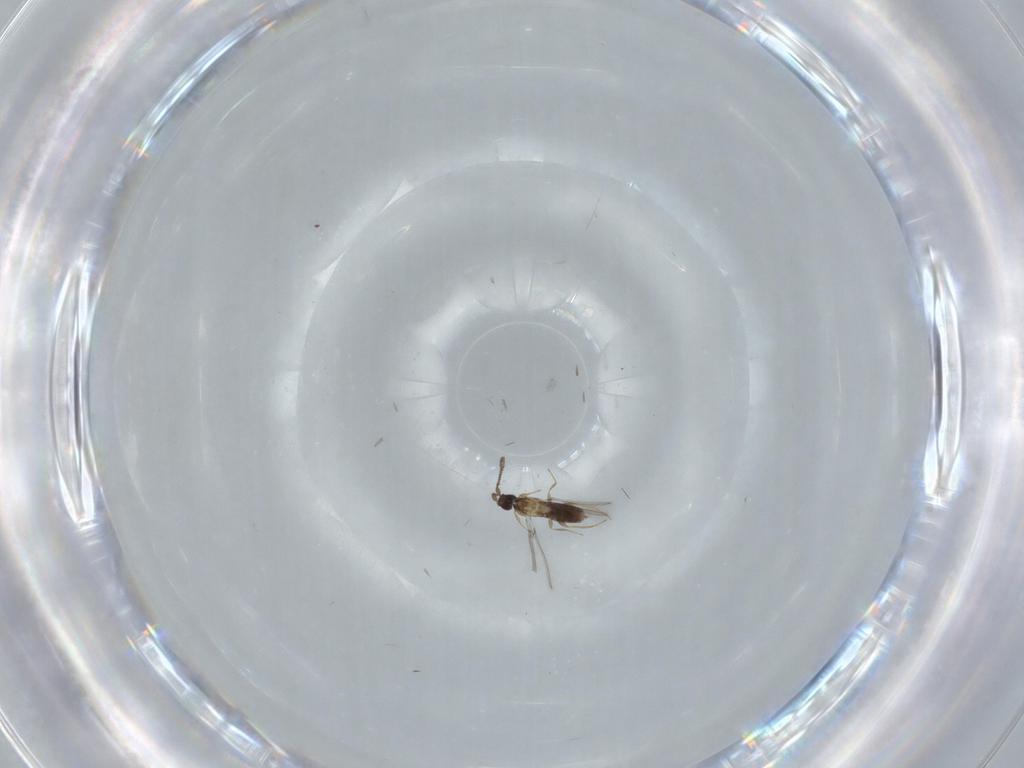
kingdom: Animalia
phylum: Arthropoda
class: Insecta
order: Hymenoptera
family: Mymaridae
